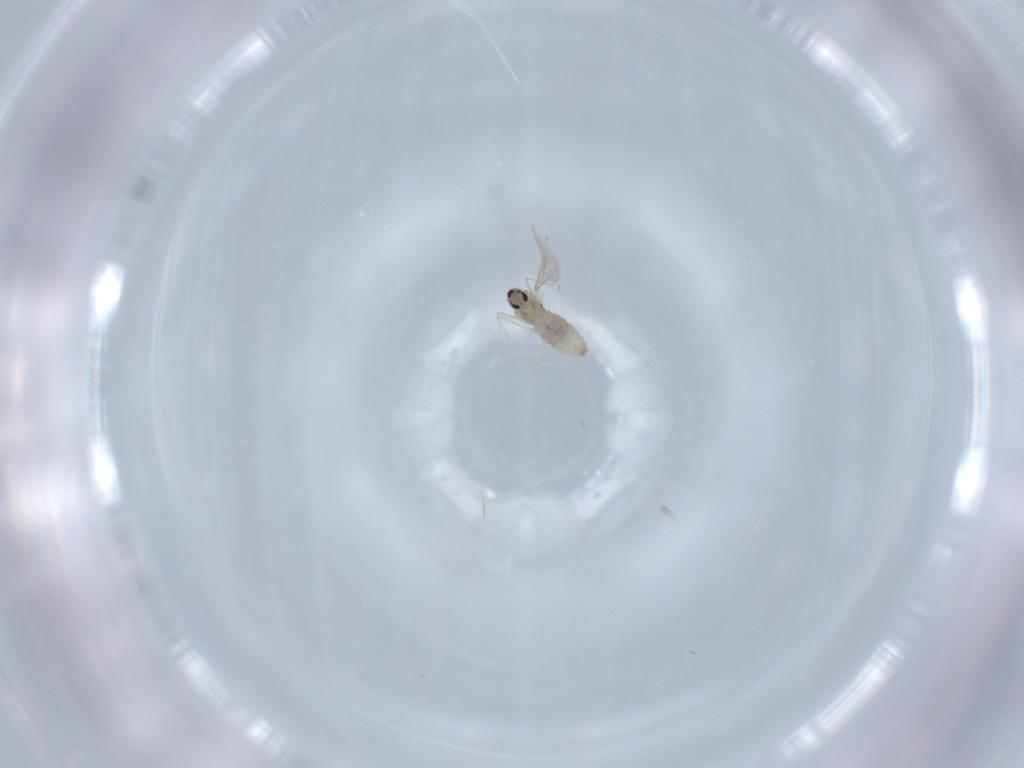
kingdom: Animalia
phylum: Arthropoda
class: Insecta
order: Diptera
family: Cecidomyiidae
